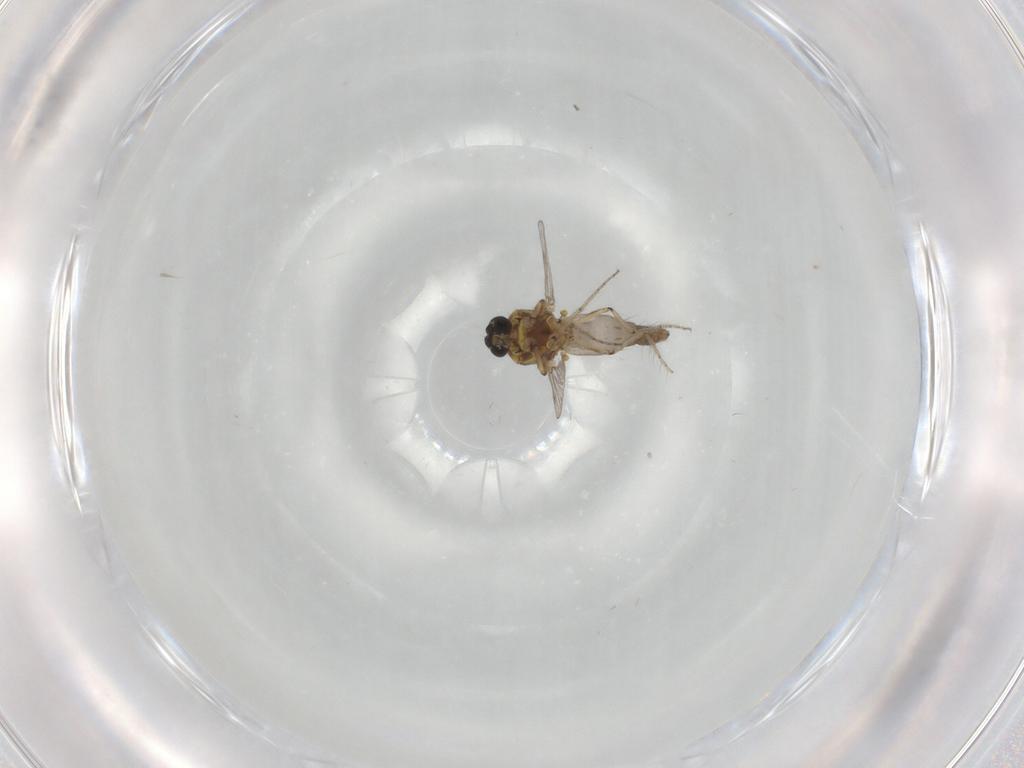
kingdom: Animalia
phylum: Arthropoda
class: Insecta
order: Diptera
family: Ceratopogonidae
